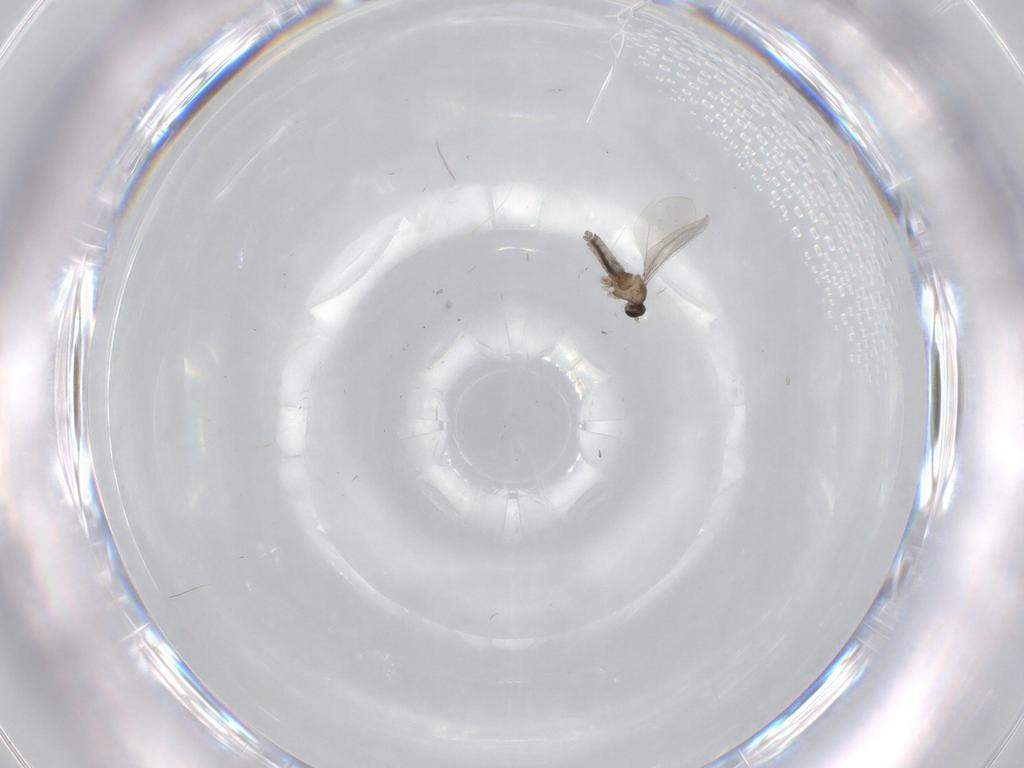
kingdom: Animalia
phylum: Arthropoda
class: Insecta
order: Diptera
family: Cecidomyiidae
